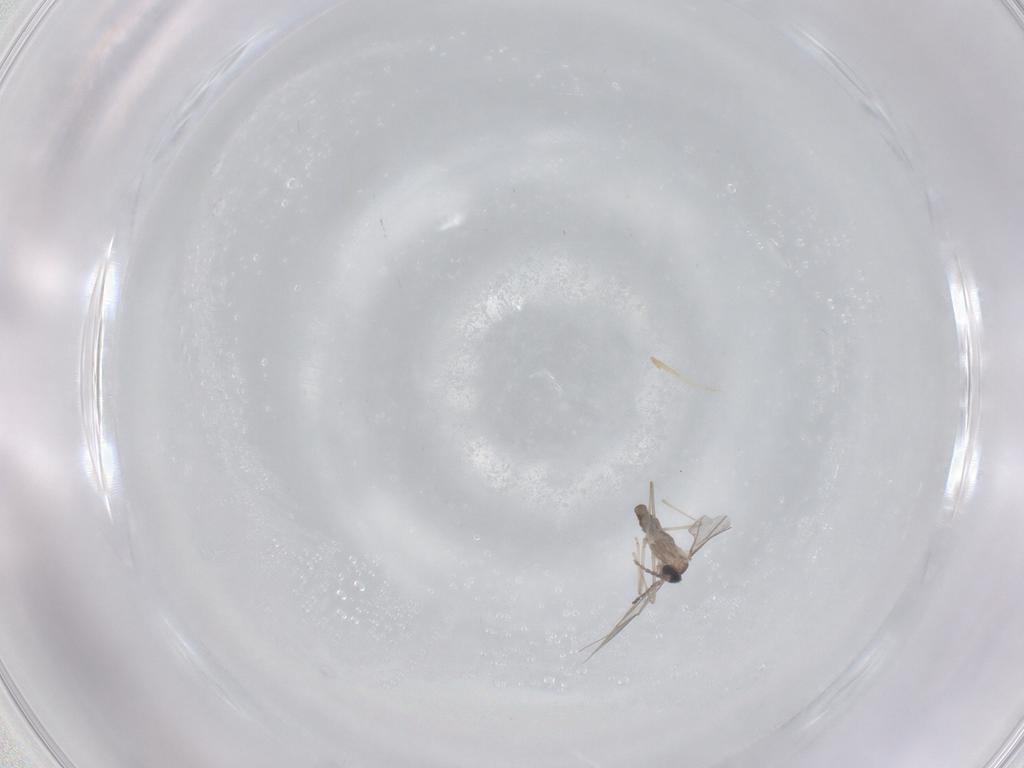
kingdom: Animalia
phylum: Arthropoda
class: Insecta
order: Diptera
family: Cecidomyiidae
